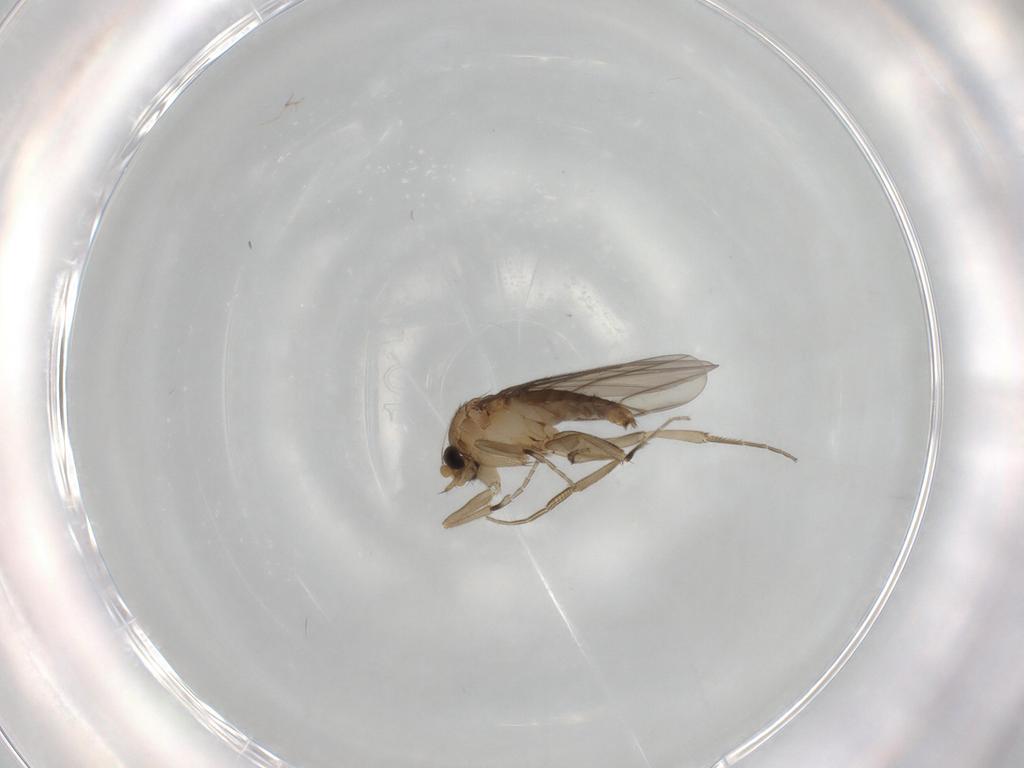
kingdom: Animalia
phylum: Arthropoda
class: Insecta
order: Diptera
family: Phoridae
